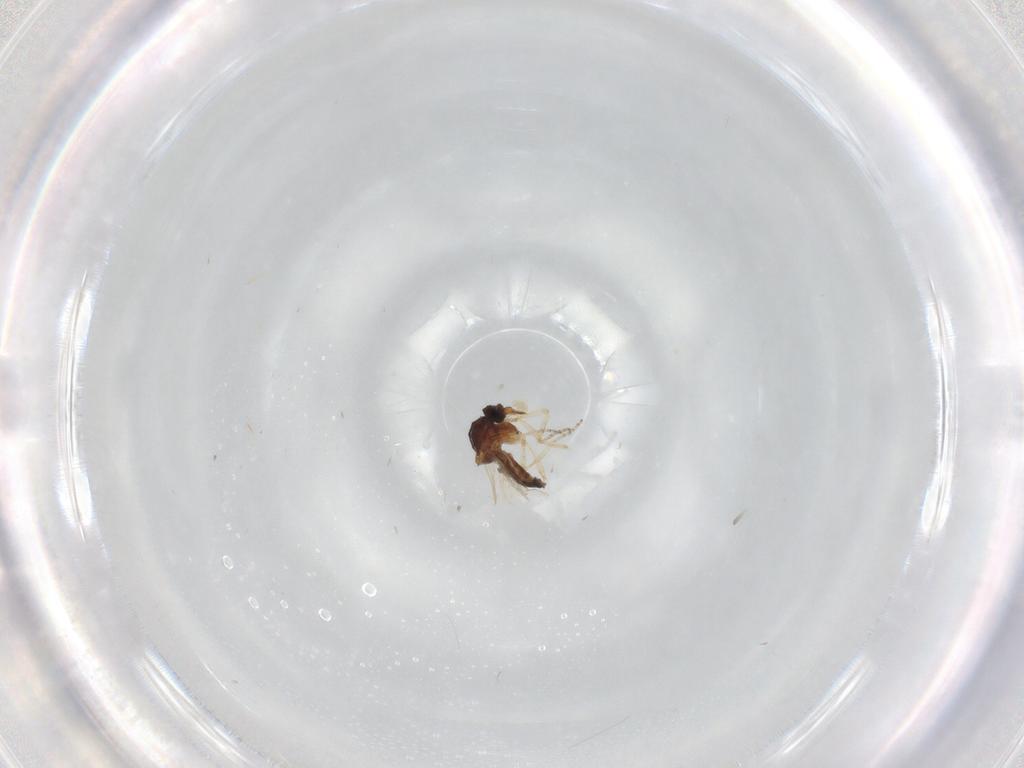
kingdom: Animalia
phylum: Arthropoda
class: Insecta
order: Diptera
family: Ceratopogonidae
